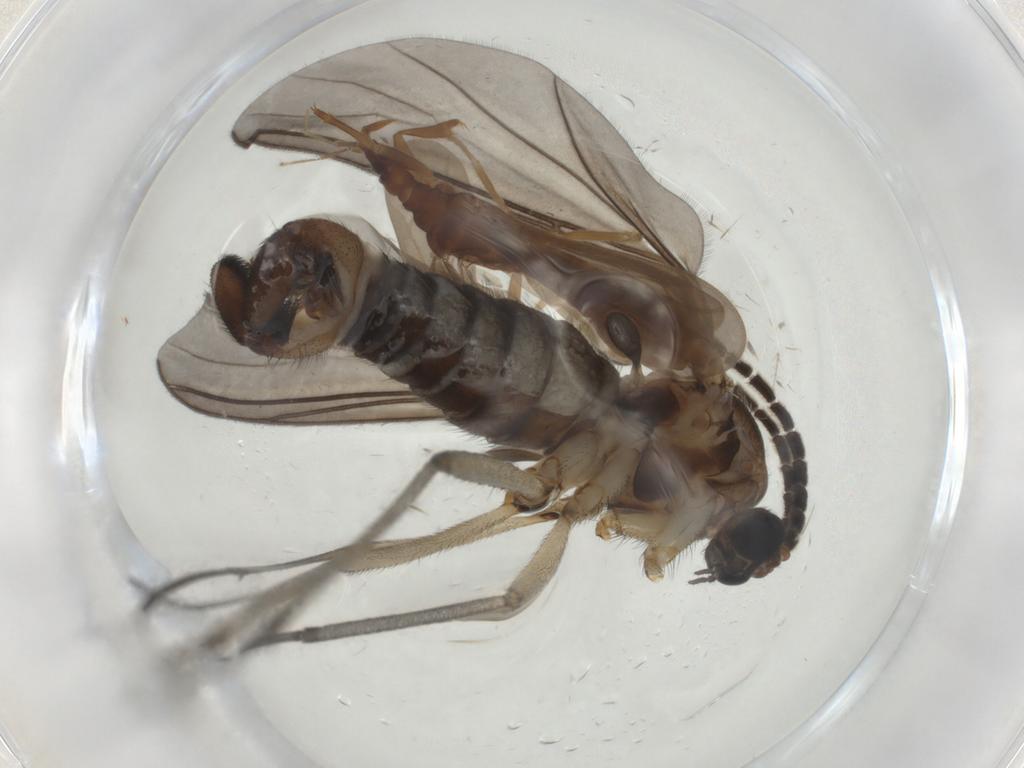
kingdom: Animalia
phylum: Arthropoda
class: Insecta
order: Diptera
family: Sciaridae
